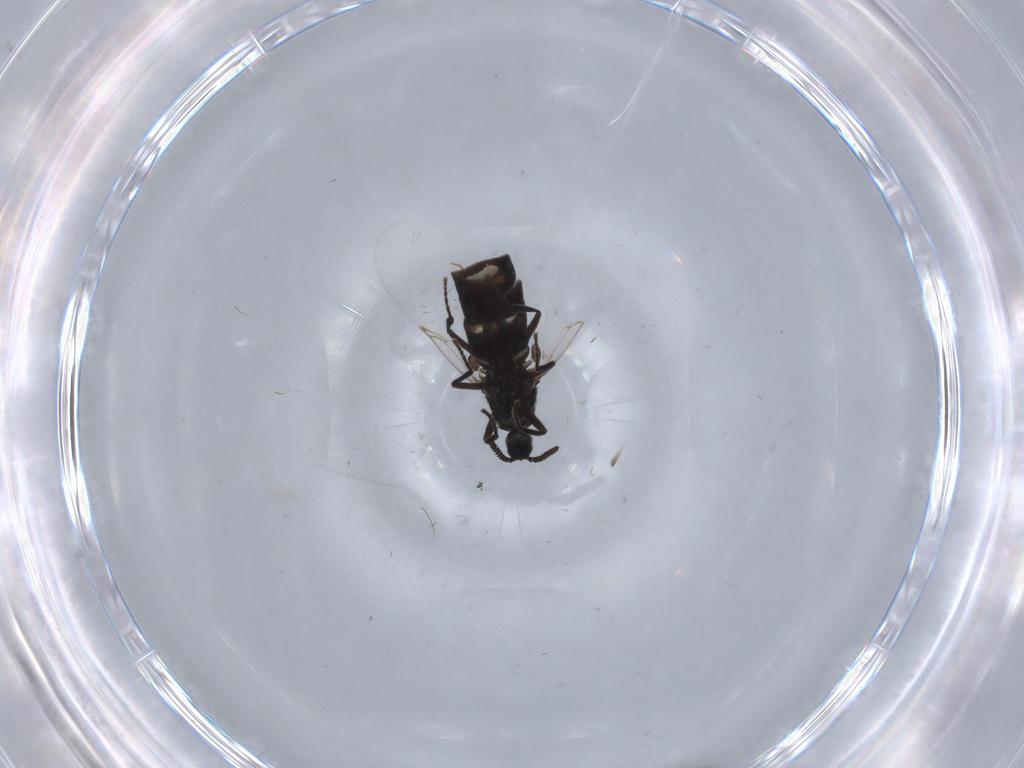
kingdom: Animalia
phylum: Arthropoda
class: Insecta
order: Diptera
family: Scatopsidae
